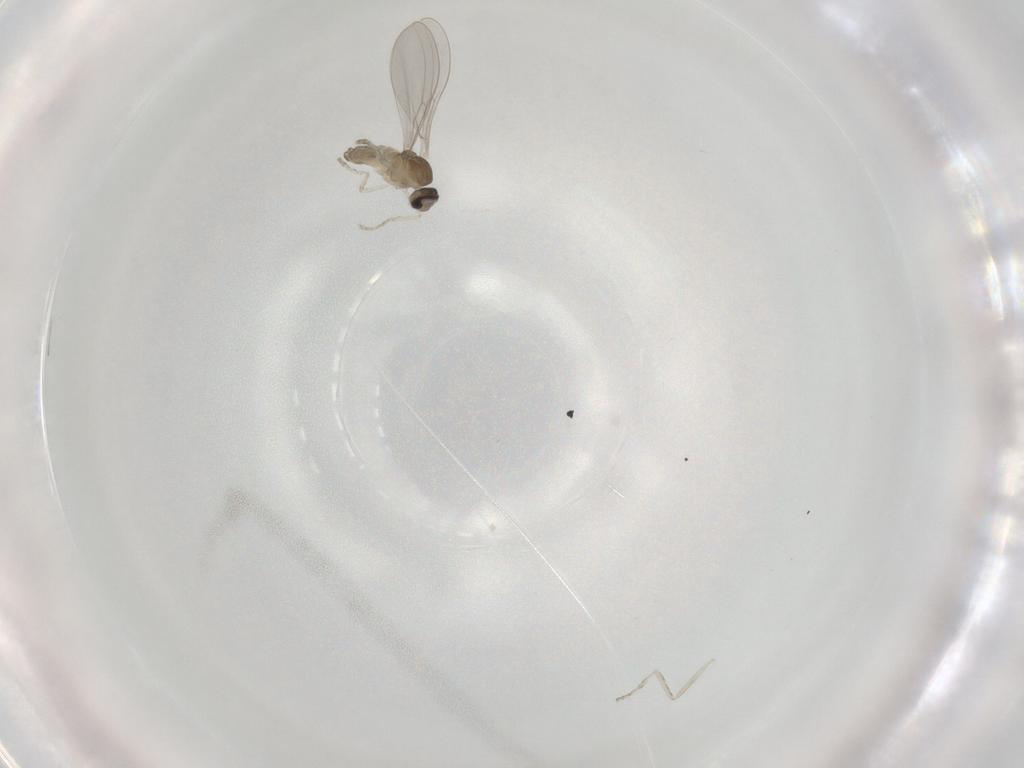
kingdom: Animalia
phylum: Arthropoda
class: Insecta
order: Diptera
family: Cecidomyiidae
